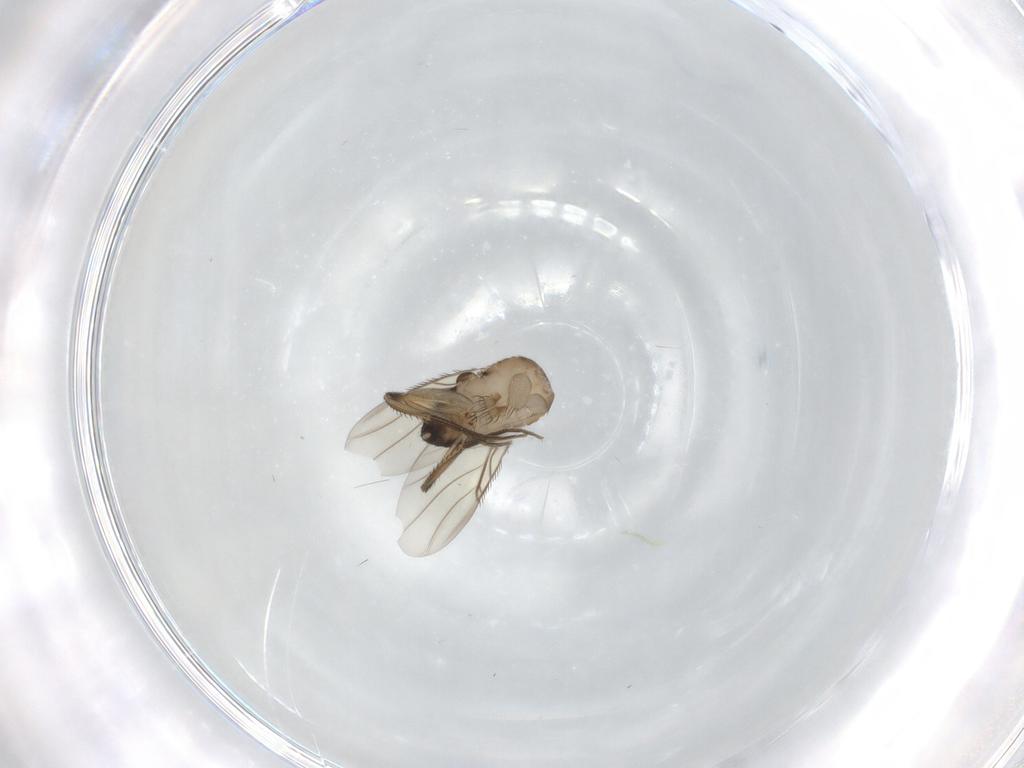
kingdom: Animalia
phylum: Arthropoda
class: Insecta
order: Diptera
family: Phoridae
